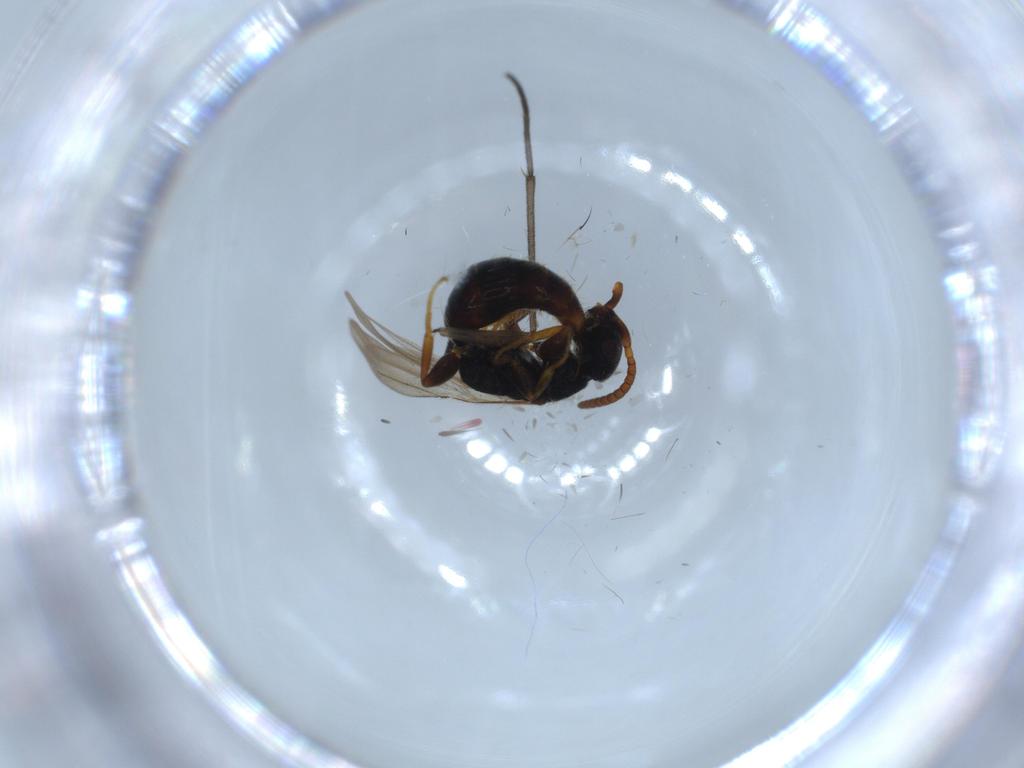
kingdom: Animalia
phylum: Arthropoda
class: Insecta
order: Hymenoptera
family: Bethylidae
